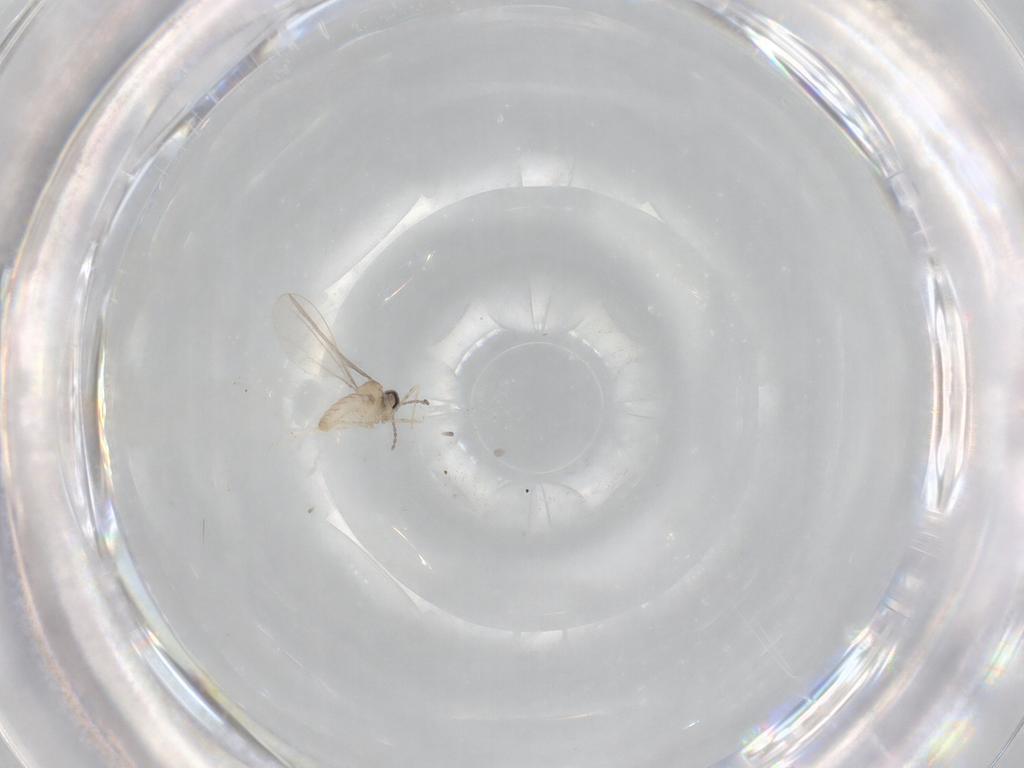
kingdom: Animalia
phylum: Arthropoda
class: Insecta
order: Diptera
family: Cecidomyiidae
